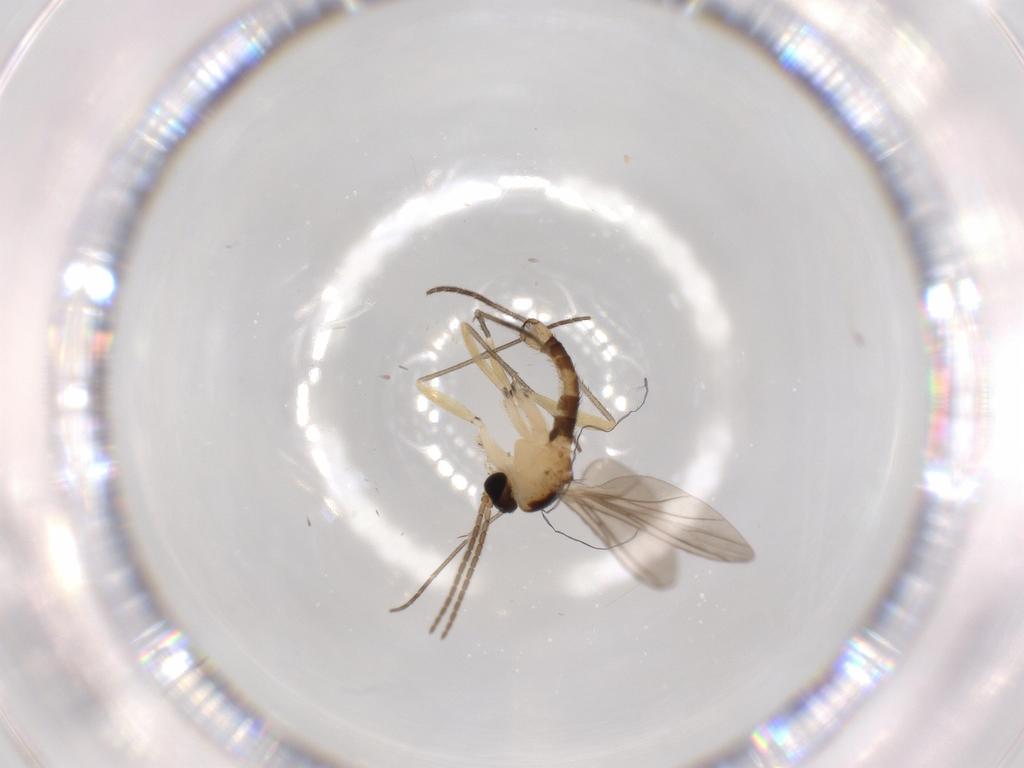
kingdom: Animalia
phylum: Arthropoda
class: Insecta
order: Diptera
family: Sciaridae
